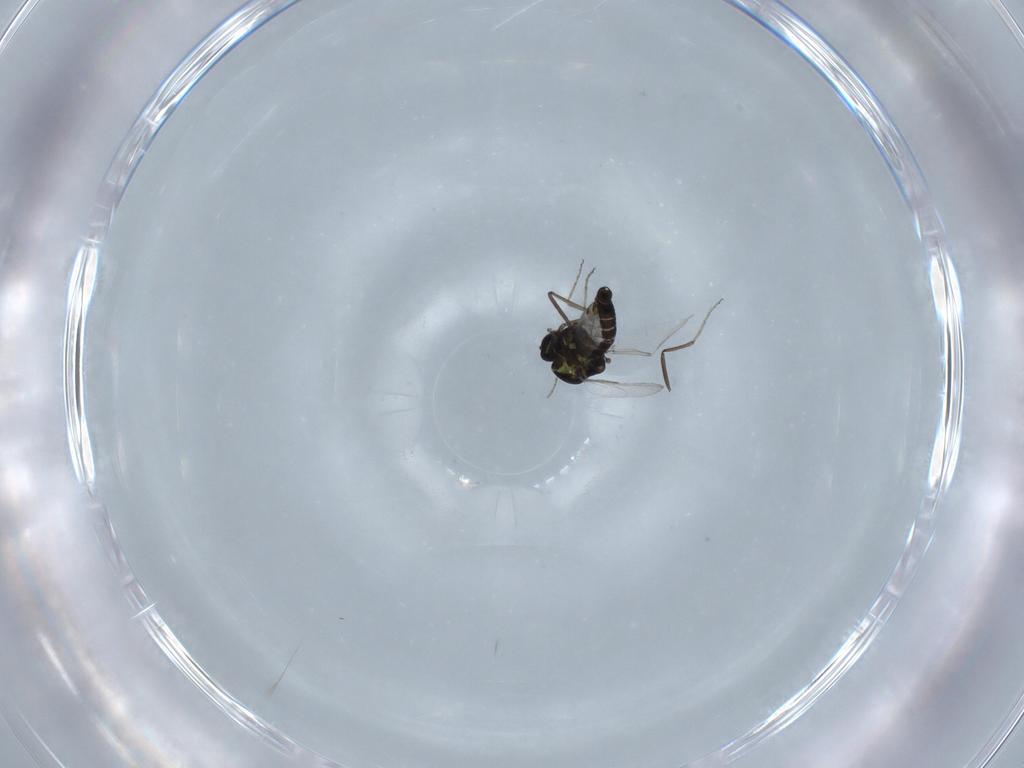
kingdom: Animalia
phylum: Arthropoda
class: Insecta
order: Diptera
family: Ceratopogonidae
